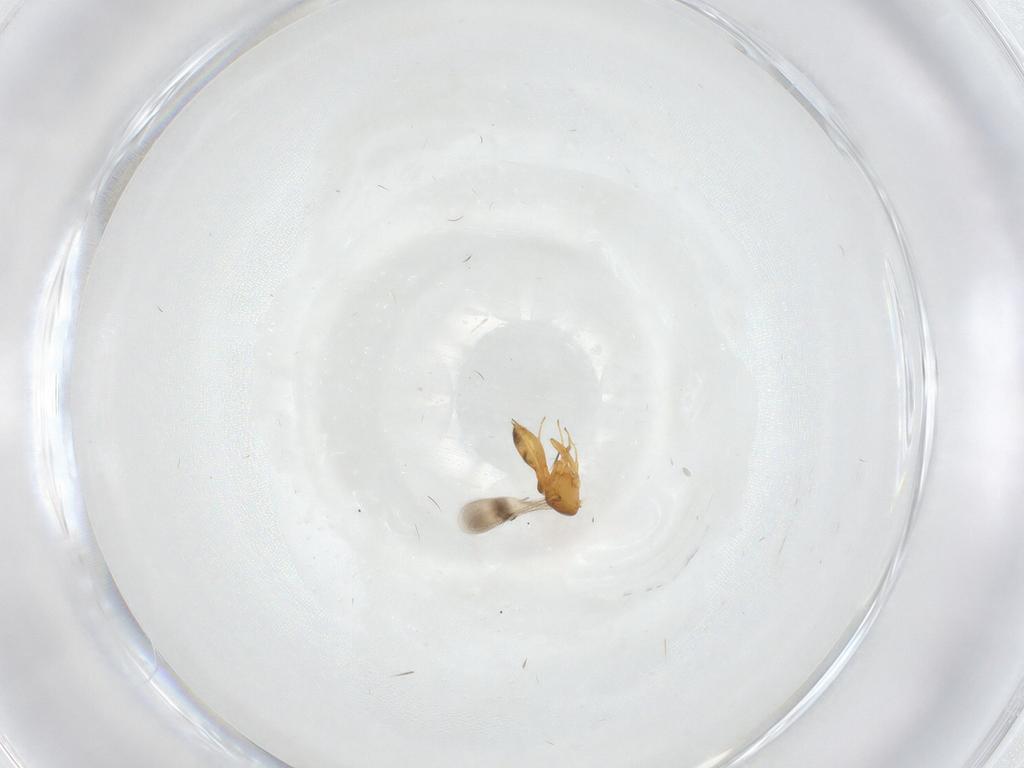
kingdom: Animalia
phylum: Arthropoda
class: Insecta
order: Hymenoptera
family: Scelionidae
